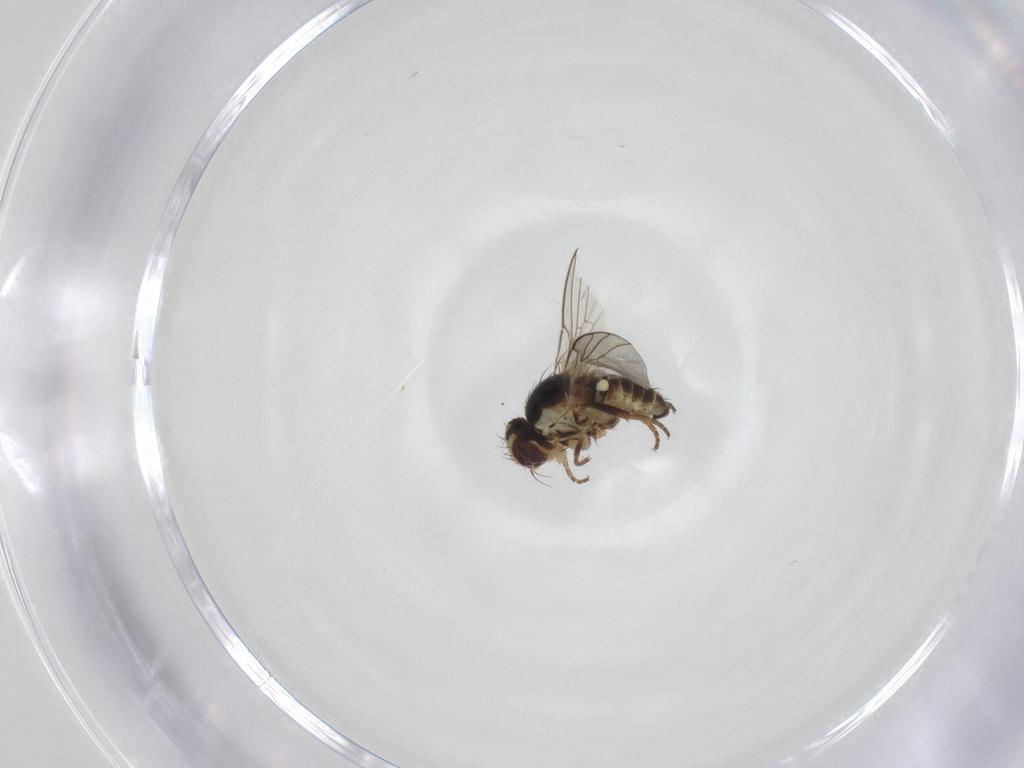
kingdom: Animalia
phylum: Arthropoda
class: Insecta
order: Diptera
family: Agromyzidae
